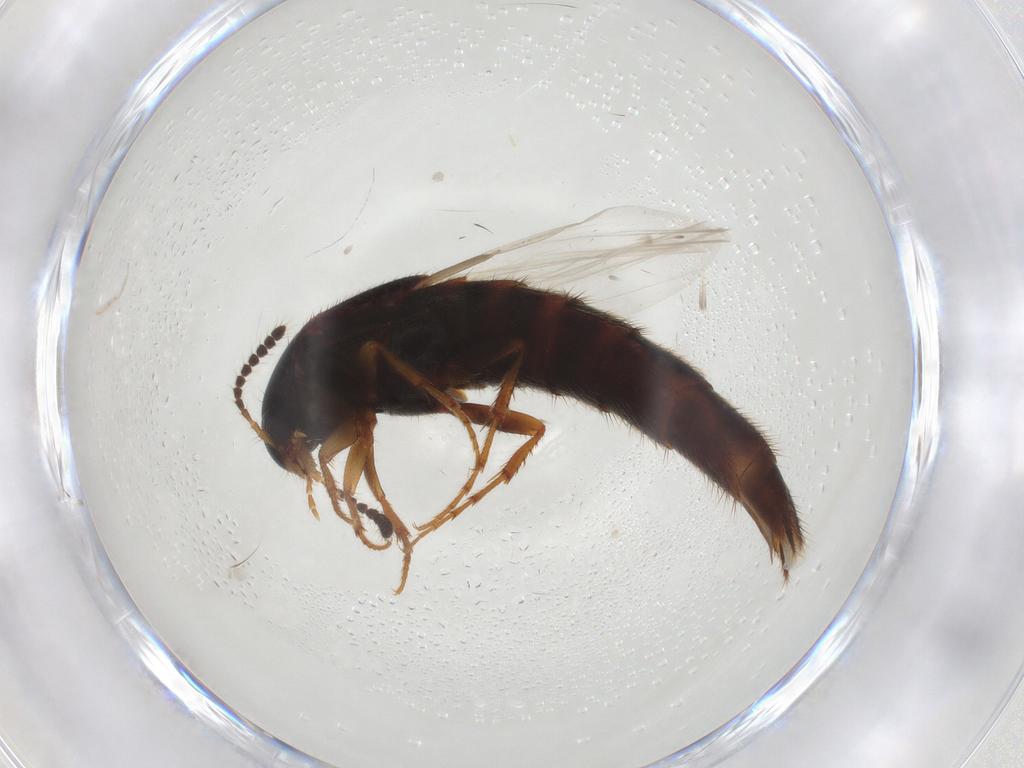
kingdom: Animalia
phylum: Arthropoda
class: Insecta
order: Coleoptera
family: Staphylinidae
